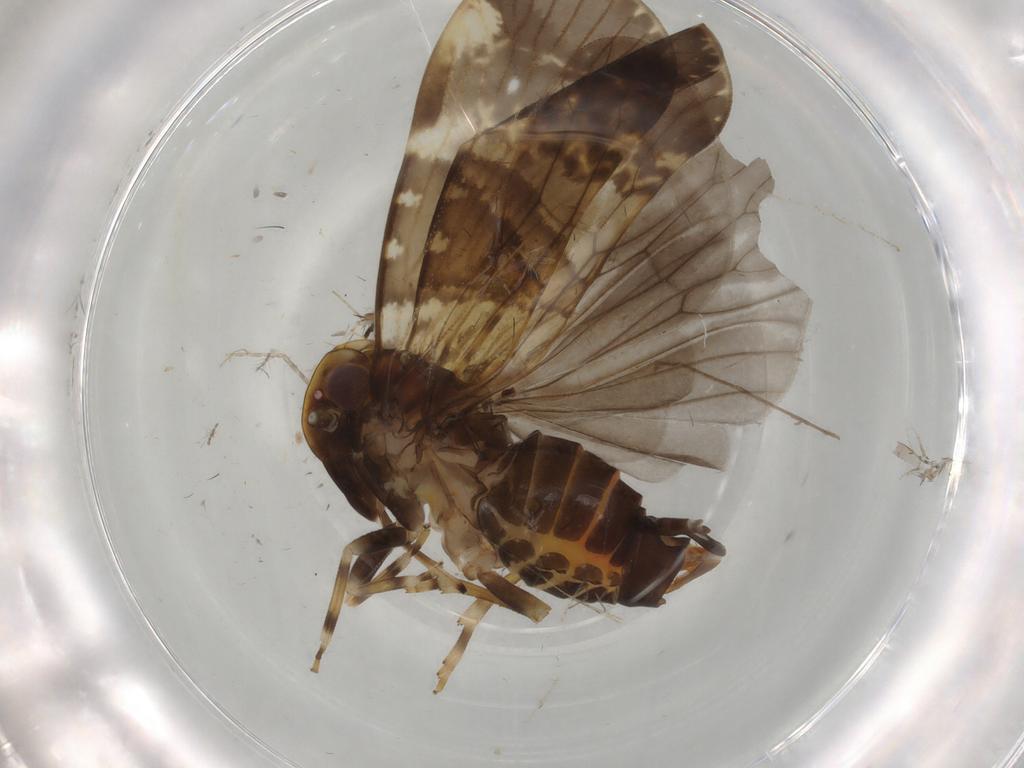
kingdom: Animalia
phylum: Arthropoda
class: Insecta
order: Hemiptera
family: Cixiidae
